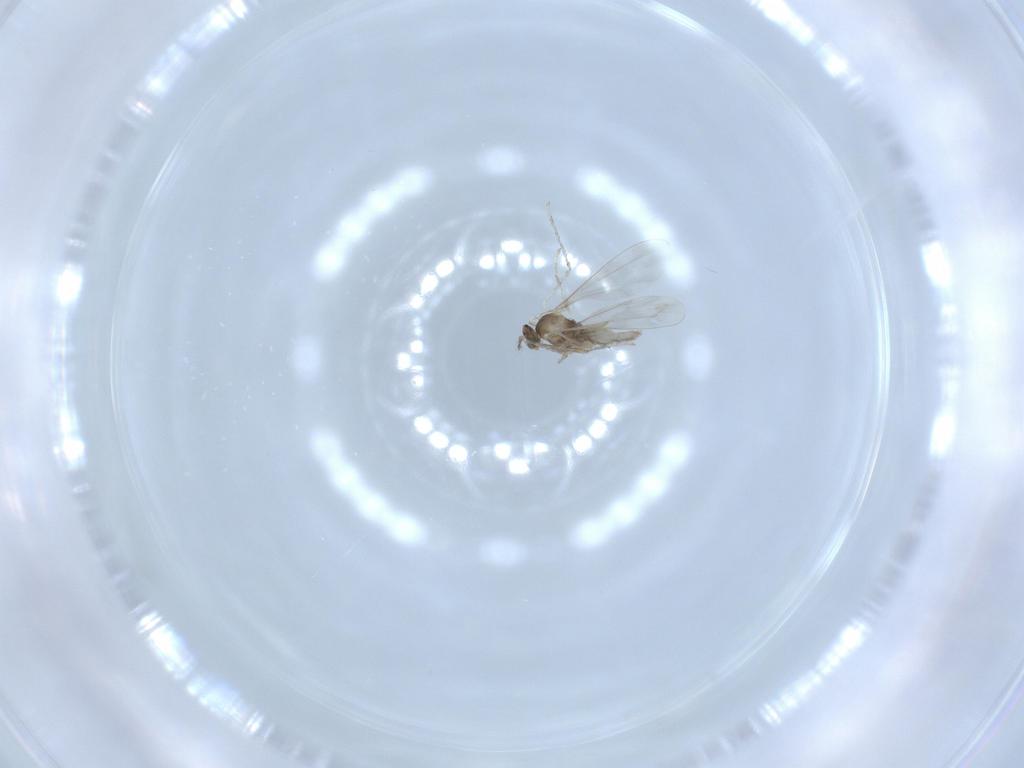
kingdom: Animalia
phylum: Arthropoda
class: Insecta
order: Diptera
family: Cecidomyiidae
